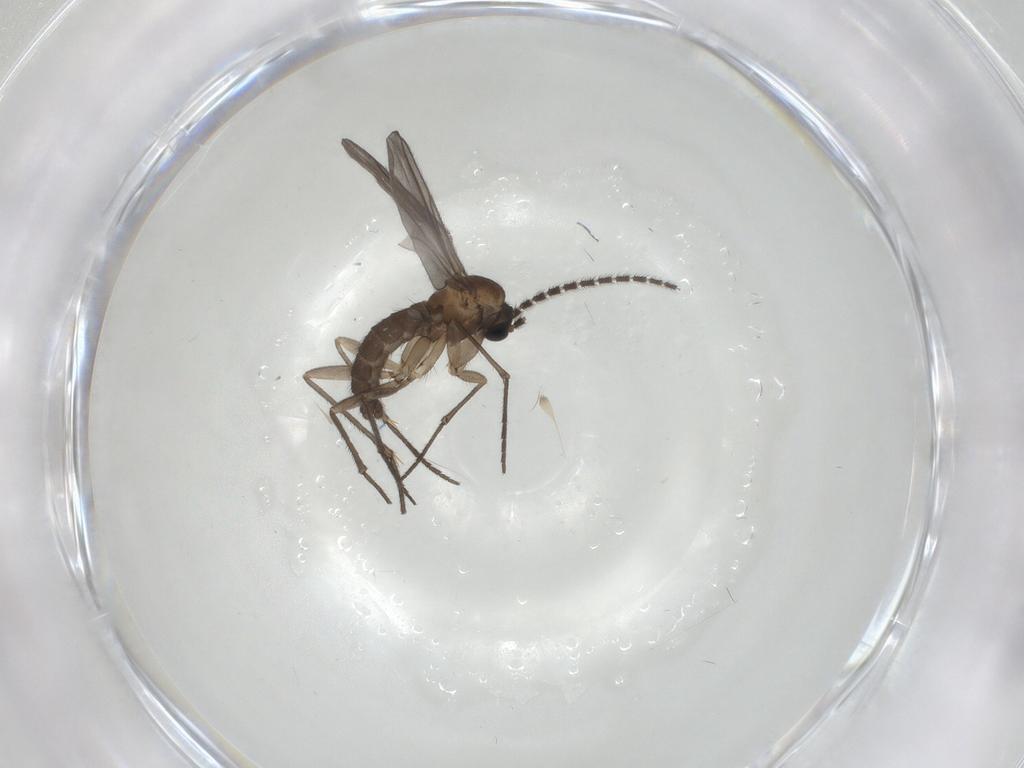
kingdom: Animalia
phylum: Arthropoda
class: Insecta
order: Diptera
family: Sciaridae
